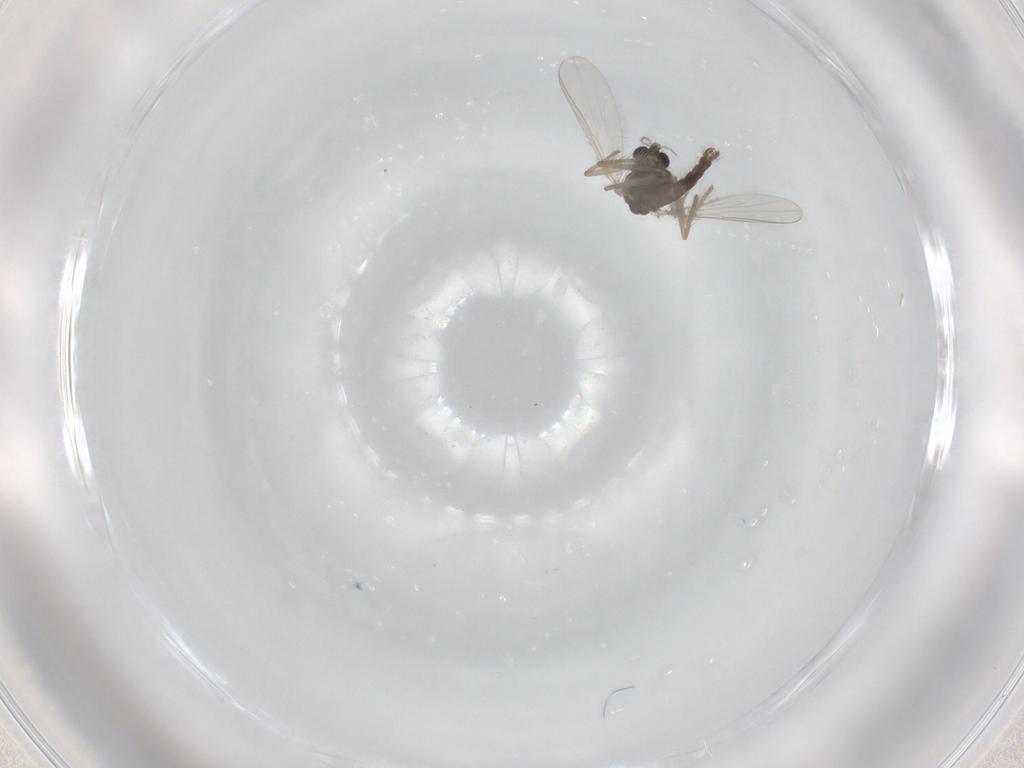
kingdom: Animalia
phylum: Arthropoda
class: Insecta
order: Diptera
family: Chironomidae
